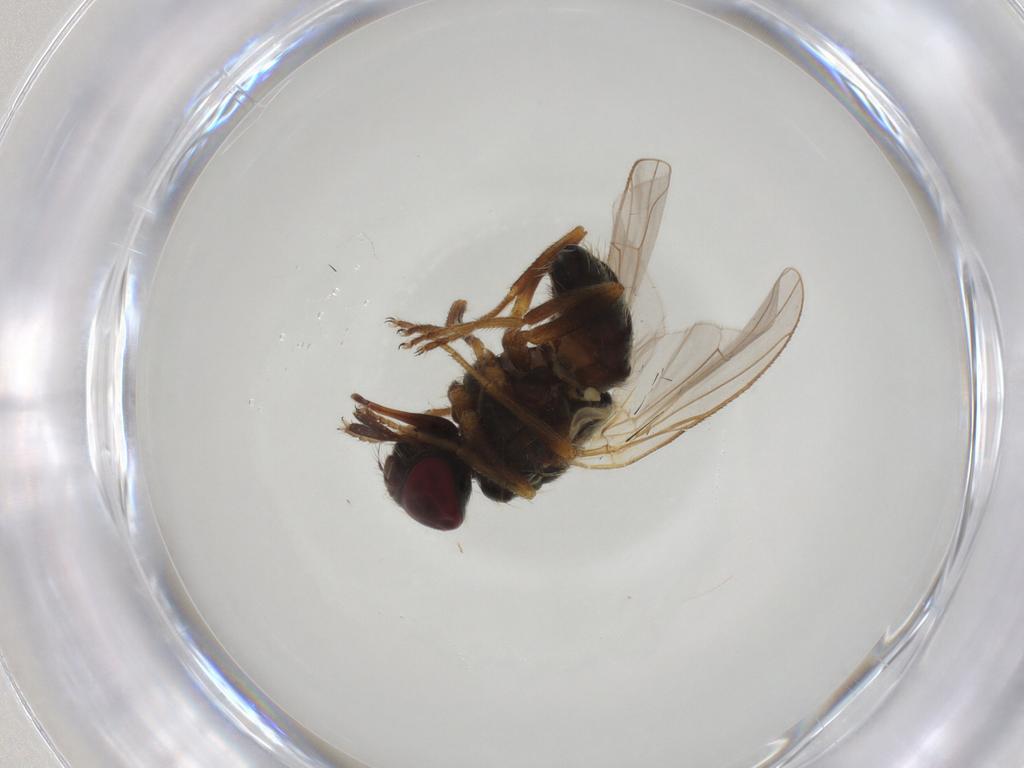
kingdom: Animalia
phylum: Arthropoda
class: Insecta
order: Diptera
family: Muscidae
